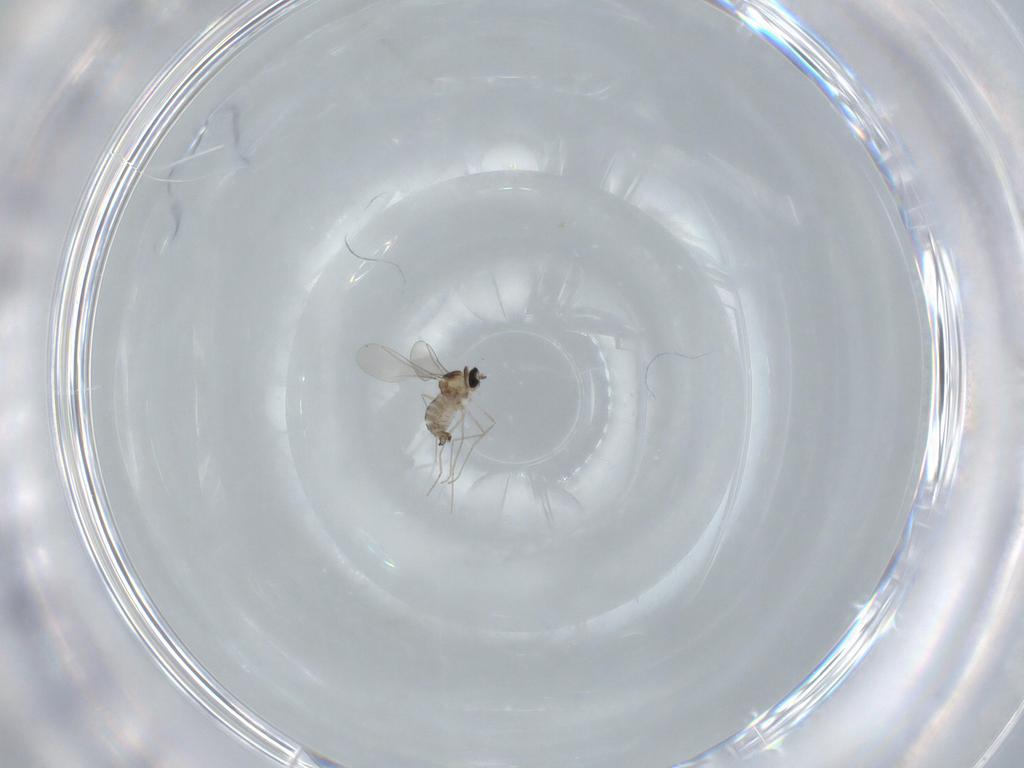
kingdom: Animalia
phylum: Arthropoda
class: Insecta
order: Diptera
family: Cecidomyiidae
